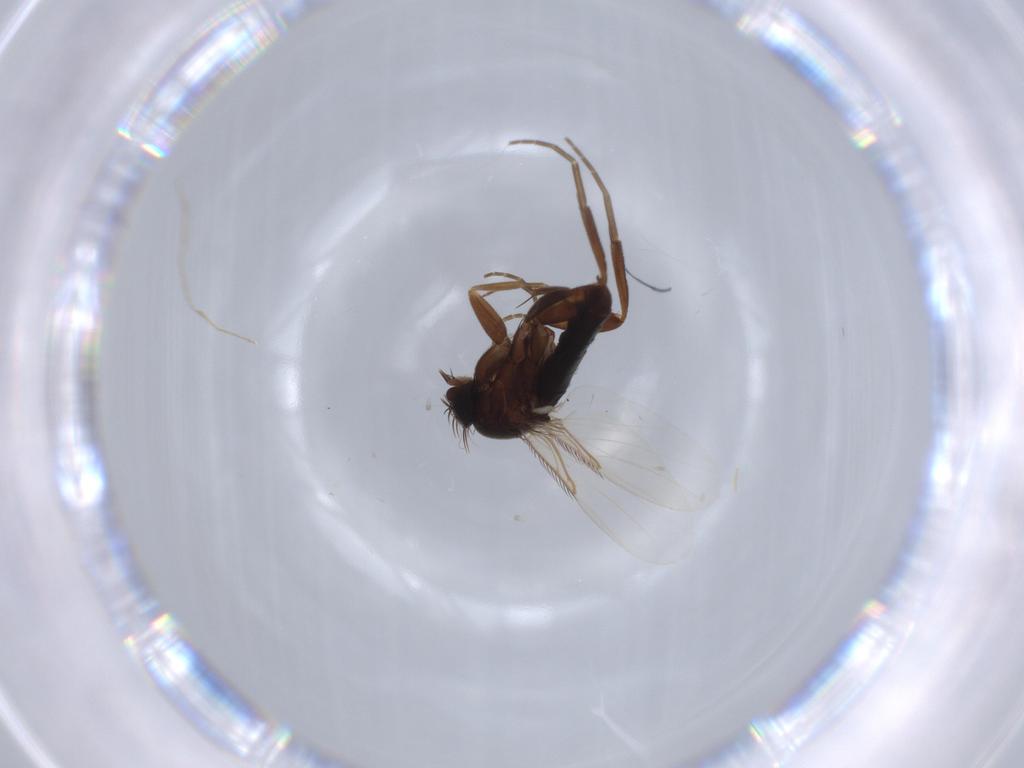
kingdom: Animalia
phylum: Arthropoda
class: Insecta
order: Diptera
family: Phoridae
